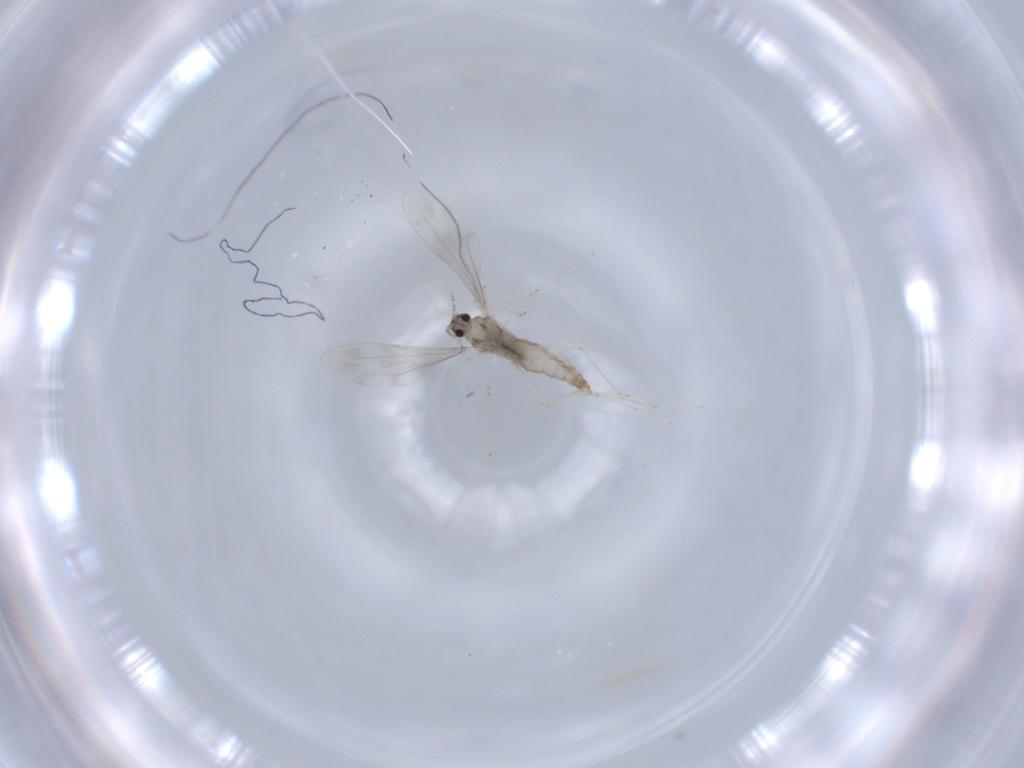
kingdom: Animalia
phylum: Arthropoda
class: Insecta
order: Diptera
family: Cecidomyiidae
